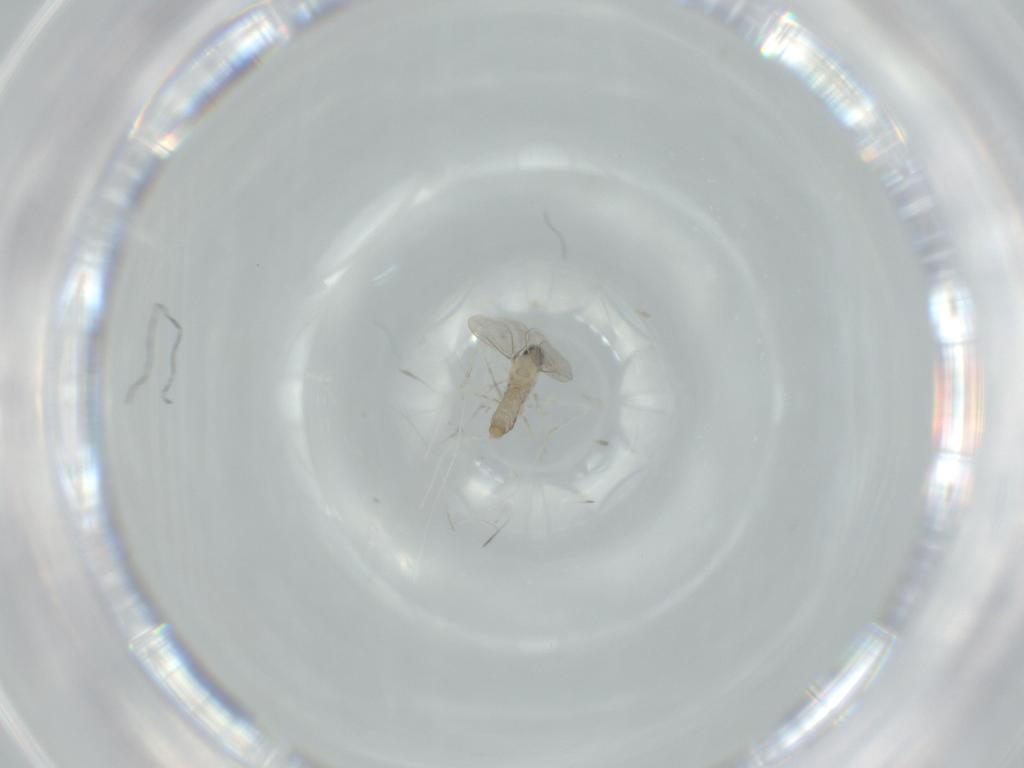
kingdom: Animalia
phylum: Arthropoda
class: Insecta
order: Diptera
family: Cecidomyiidae
